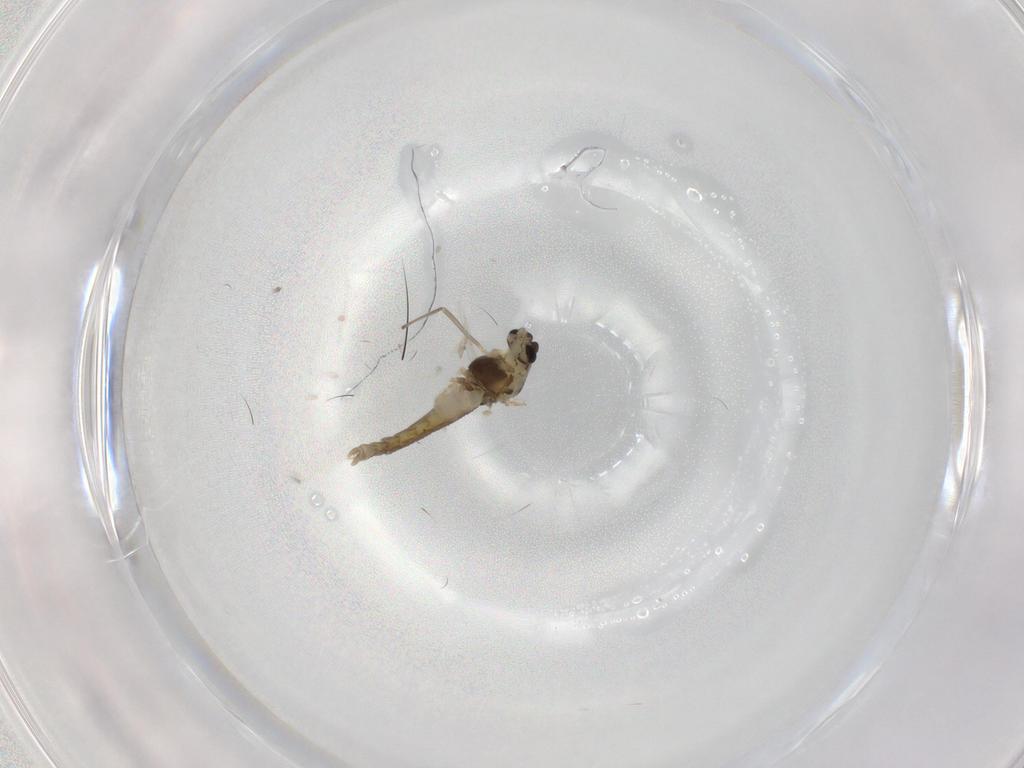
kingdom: Animalia
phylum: Arthropoda
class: Insecta
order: Diptera
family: Chironomidae
